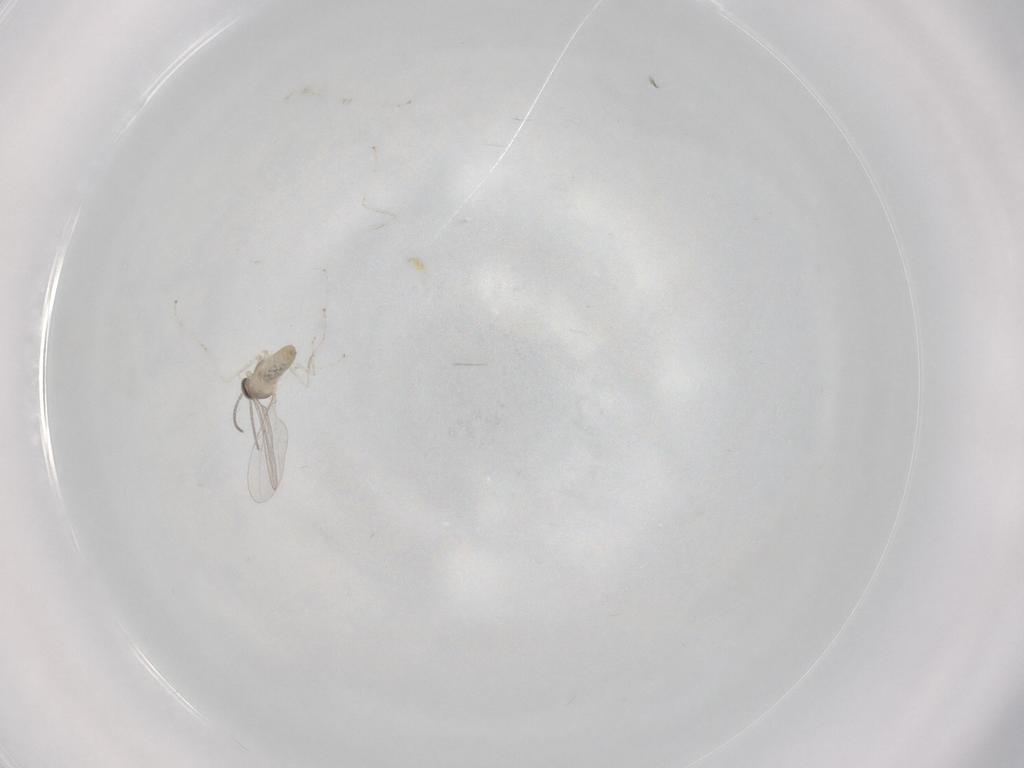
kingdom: Animalia
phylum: Arthropoda
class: Insecta
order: Diptera
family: Cecidomyiidae
